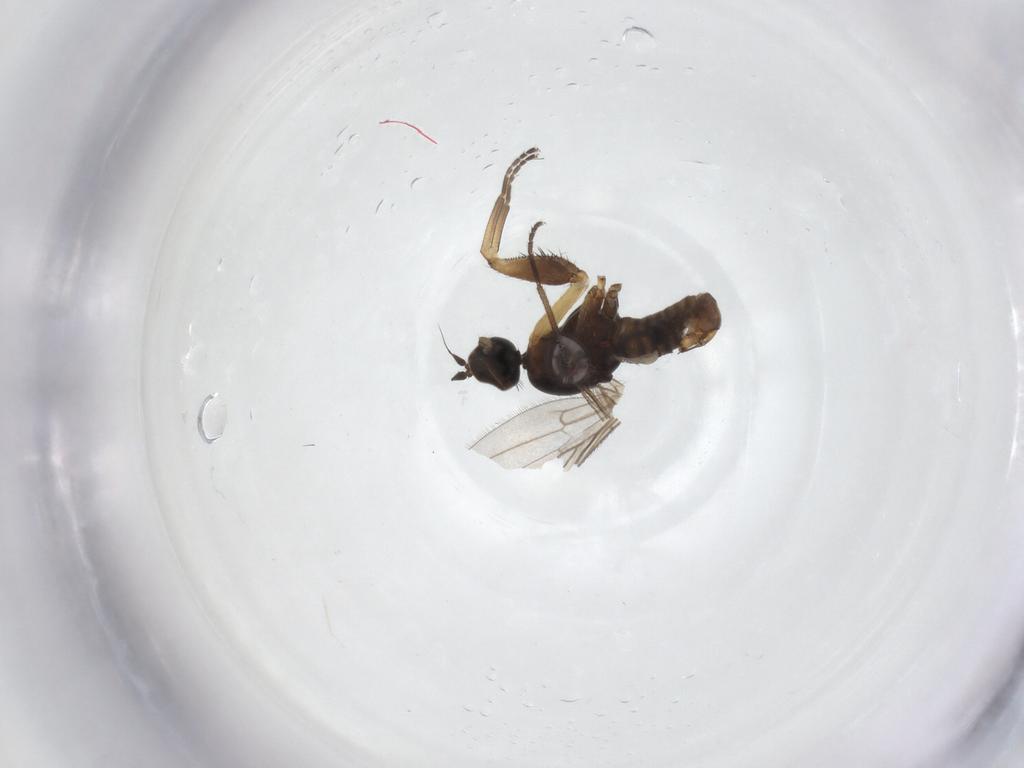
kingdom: Animalia
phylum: Arthropoda
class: Insecta
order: Diptera
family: Empididae
